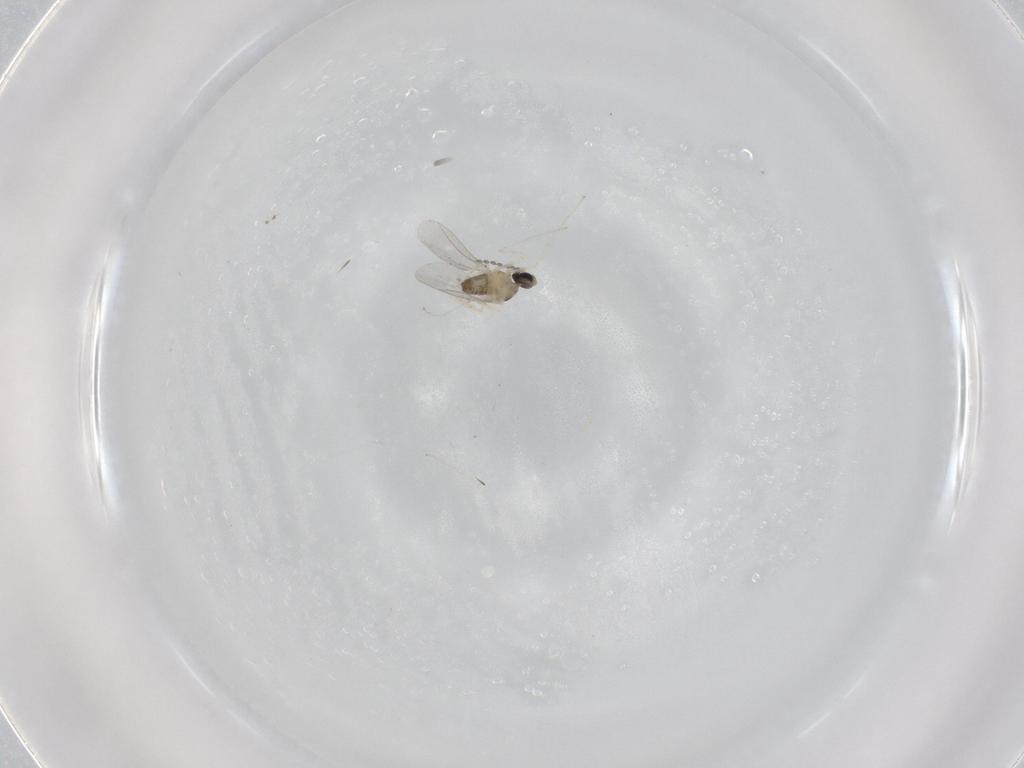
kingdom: Animalia
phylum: Arthropoda
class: Insecta
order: Diptera
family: Cecidomyiidae
